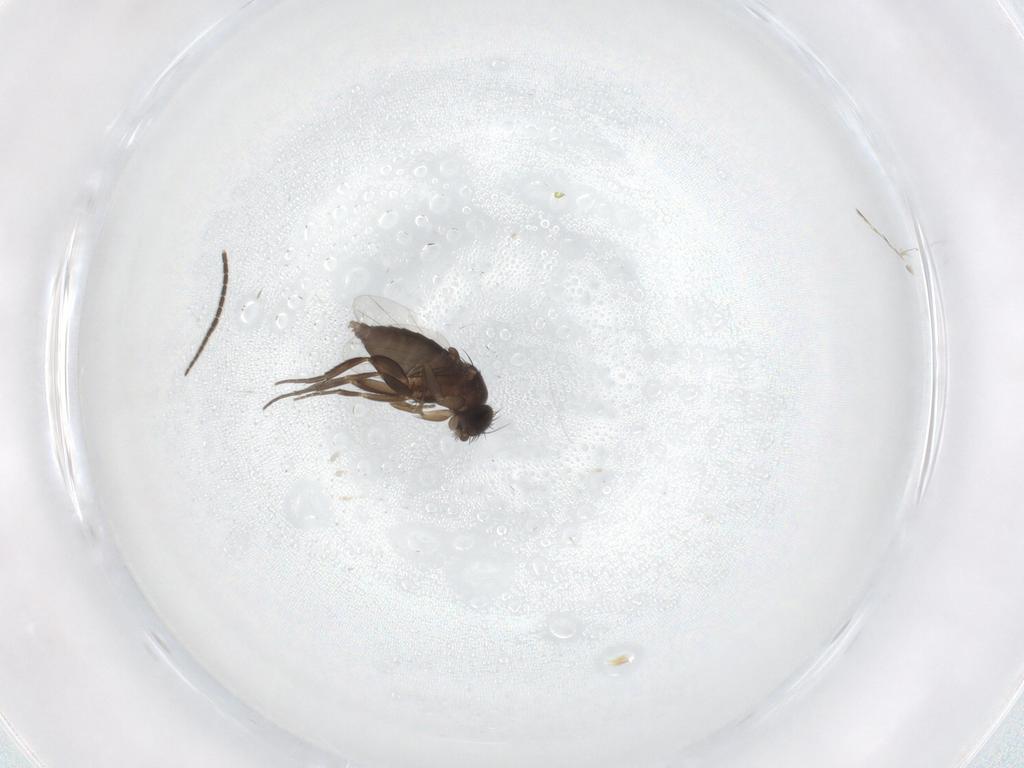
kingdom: Animalia
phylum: Arthropoda
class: Insecta
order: Diptera
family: Phoridae
